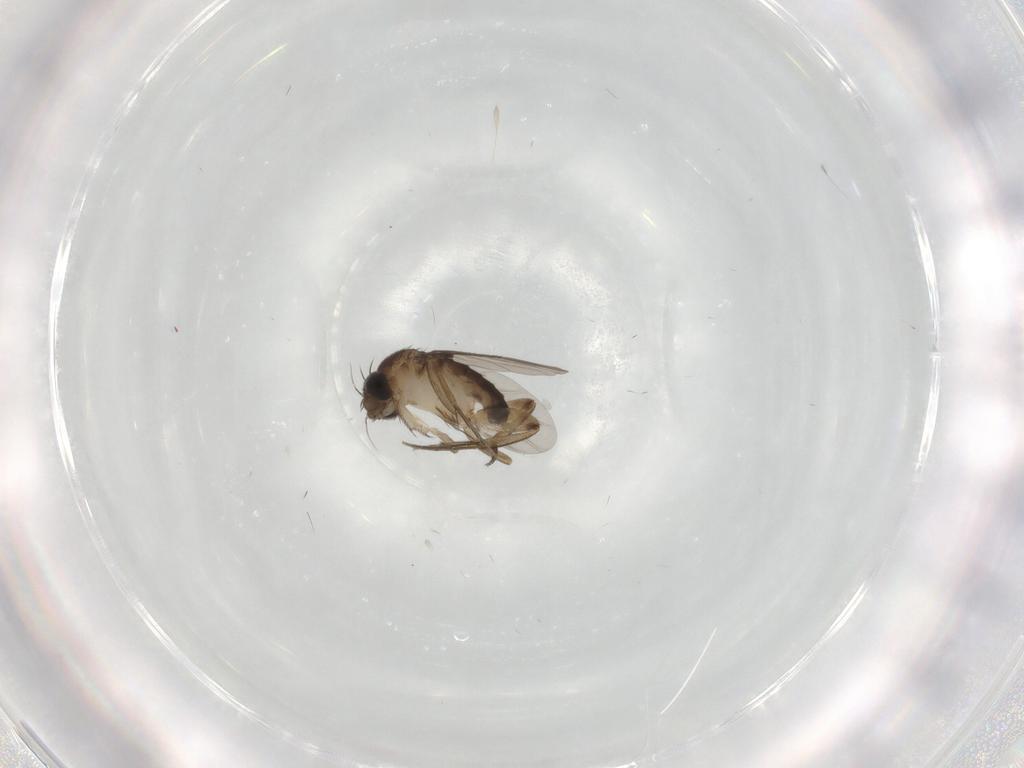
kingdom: Animalia
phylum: Arthropoda
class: Insecta
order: Diptera
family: Phoridae
